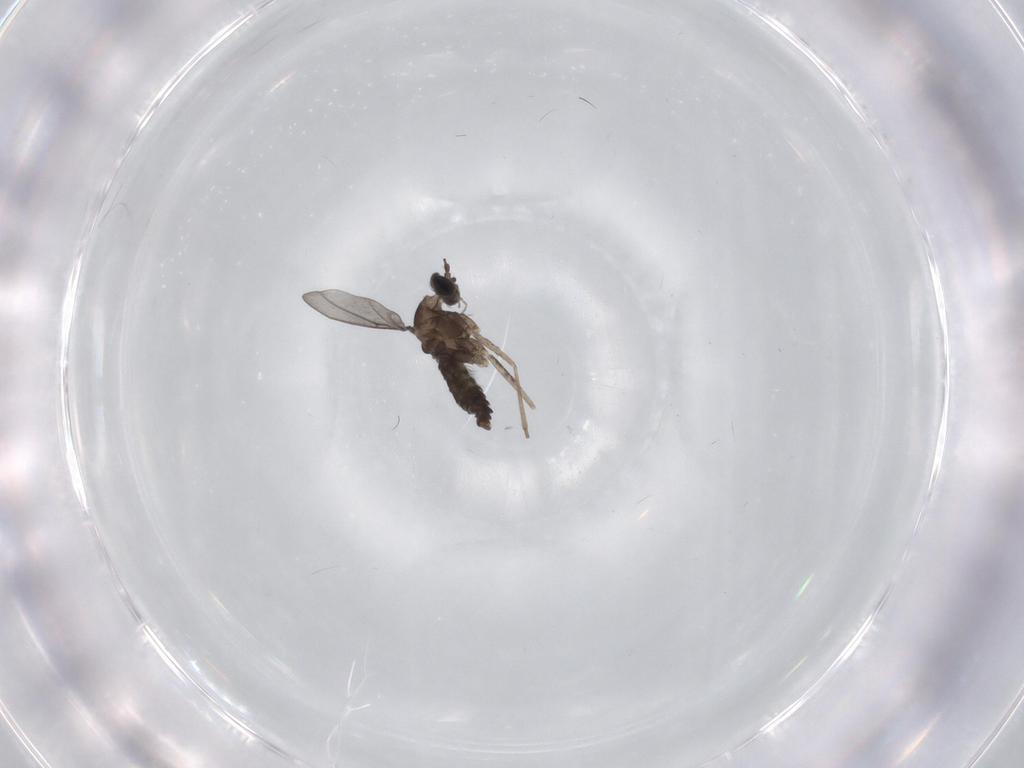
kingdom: Animalia
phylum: Arthropoda
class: Insecta
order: Diptera
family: Cecidomyiidae
